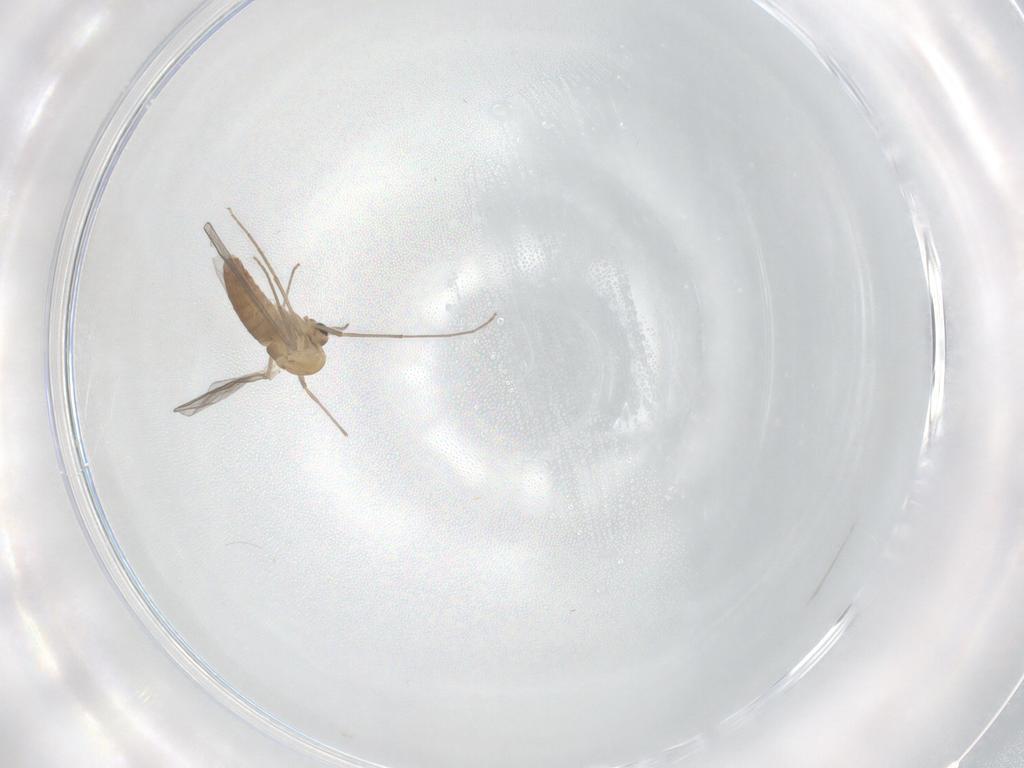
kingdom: Animalia
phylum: Arthropoda
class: Insecta
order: Diptera
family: Chironomidae
